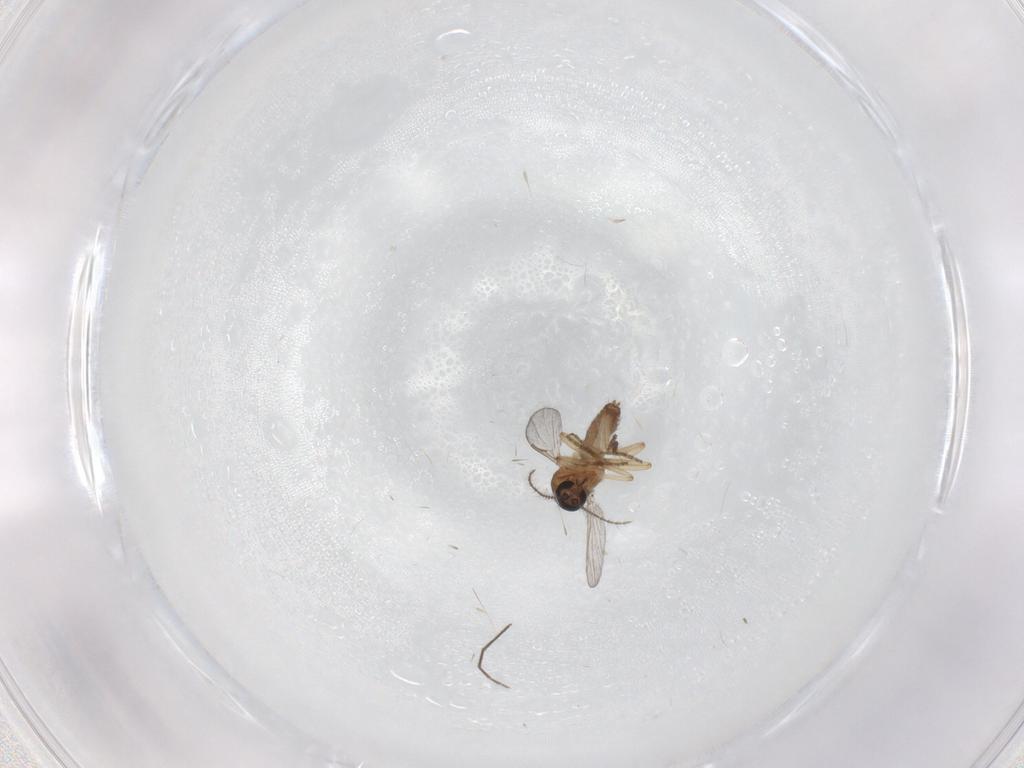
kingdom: Animalia
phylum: Arthropoda
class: Insecta
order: Diptera
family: Ceratopogonidae
